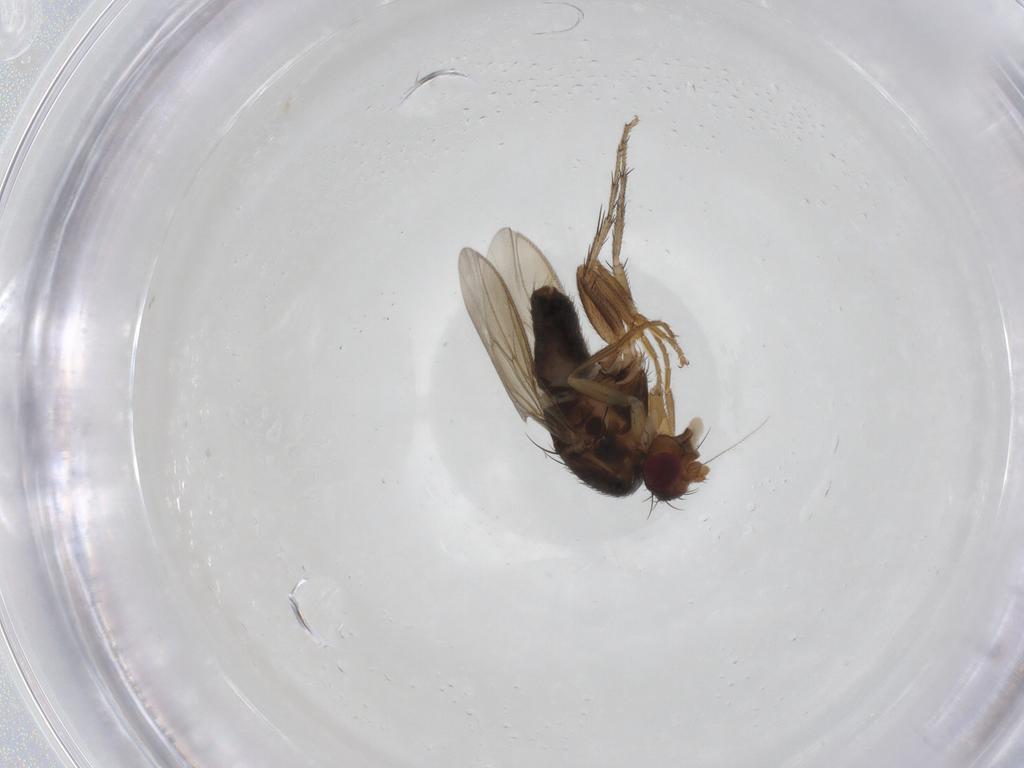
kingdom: Animalia
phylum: Arthropoda
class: Insecta
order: Diptera
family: Sphaeroceridae
